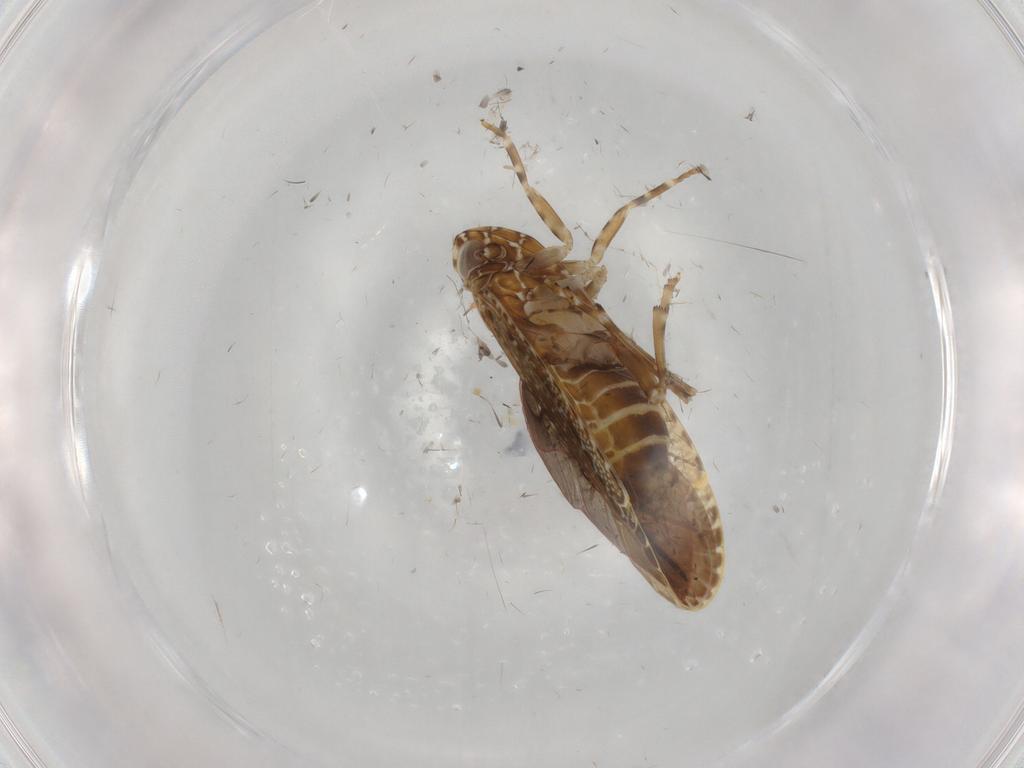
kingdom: Animalia
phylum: Arthropoda
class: Insecta
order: Hemiptera
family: Achilidae
